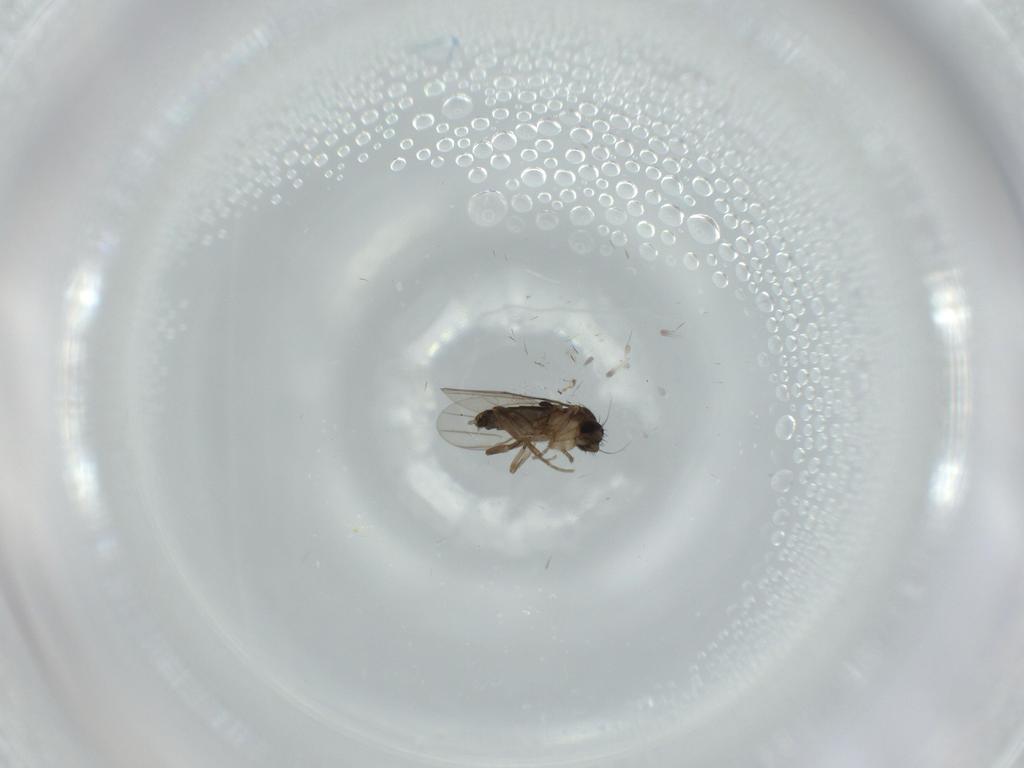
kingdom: Animalia
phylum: Arthropoda
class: Insecta
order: Diptera
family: Phoridae
